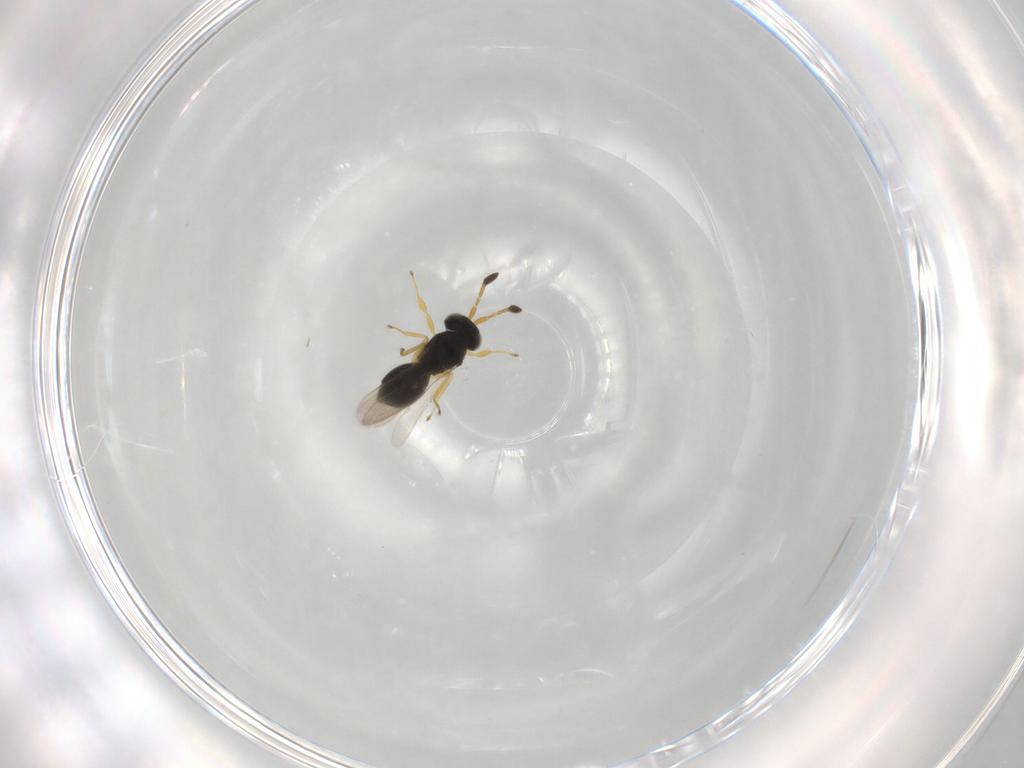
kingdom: Animalia
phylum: Arthropoda
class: Insecta
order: Hymenoptera
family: Scelionidae
